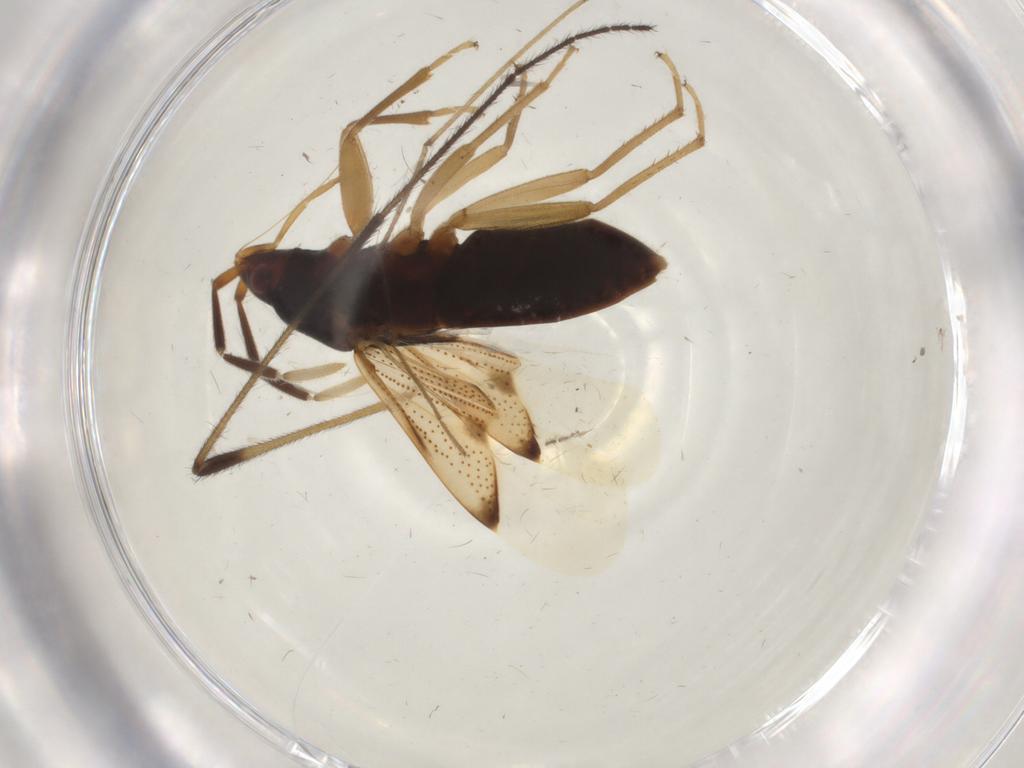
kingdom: Animalia
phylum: Arthropoda
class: Insecta
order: Hemiptera
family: Rhyparochromidae
